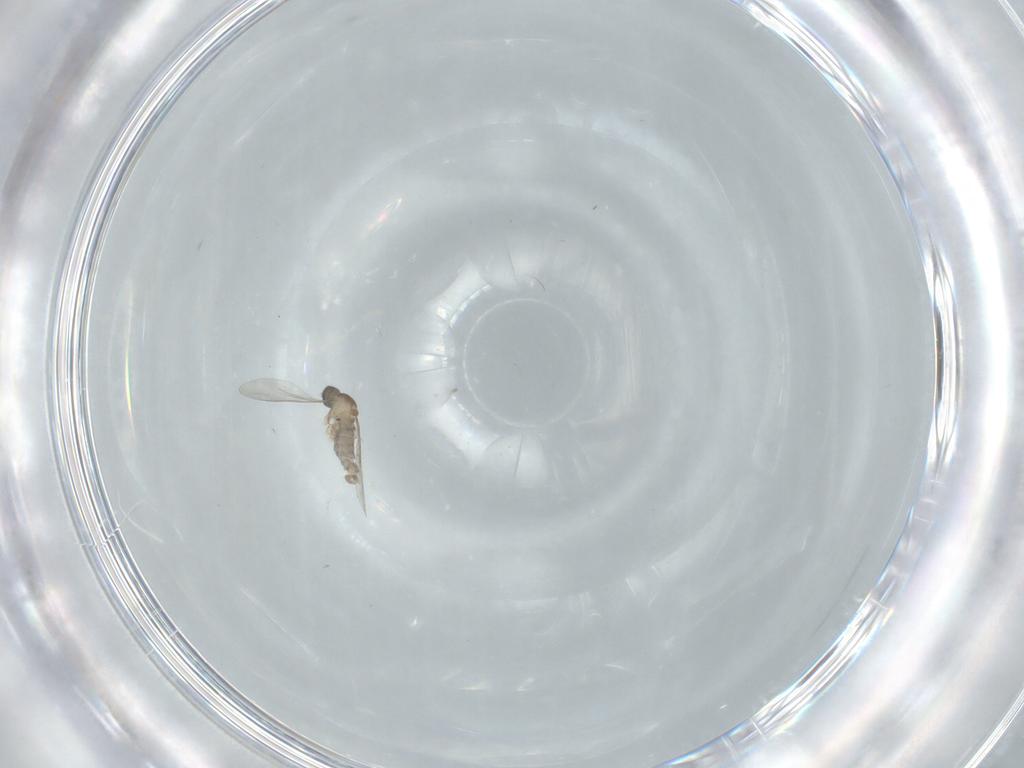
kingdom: Animalia
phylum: Arthropoda
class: Insecta
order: Diptera
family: Cecidomyiidae
